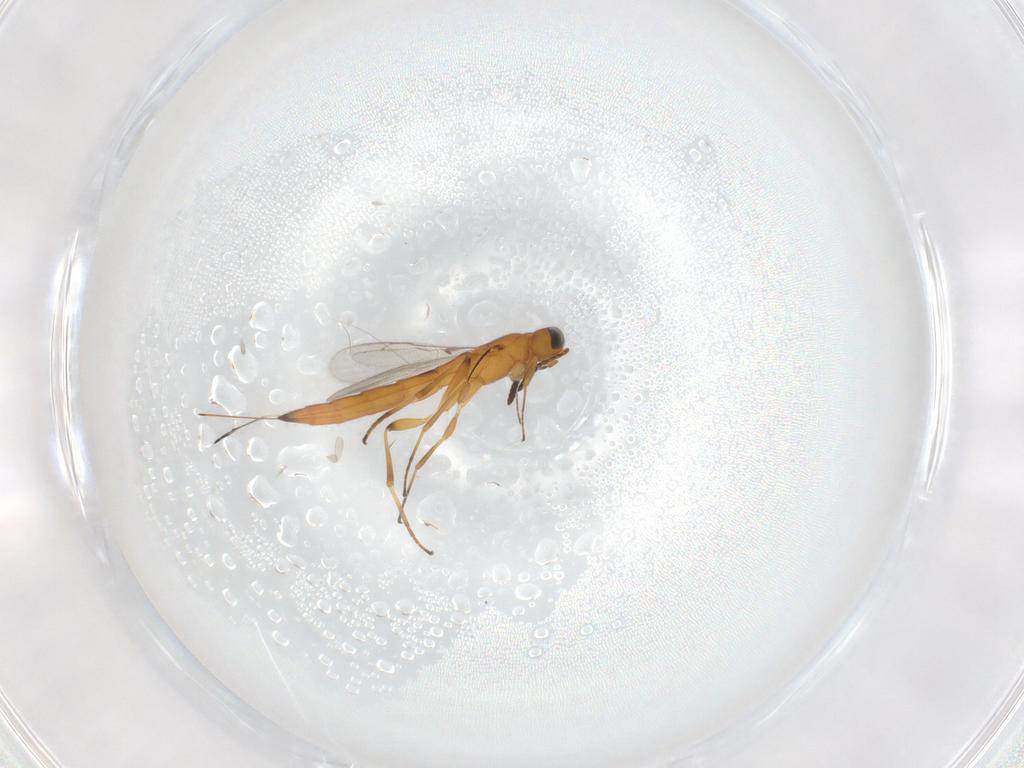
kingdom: Animalia
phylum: Arthropoda
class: Insecta
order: Hymenoptera
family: Scelionidae
